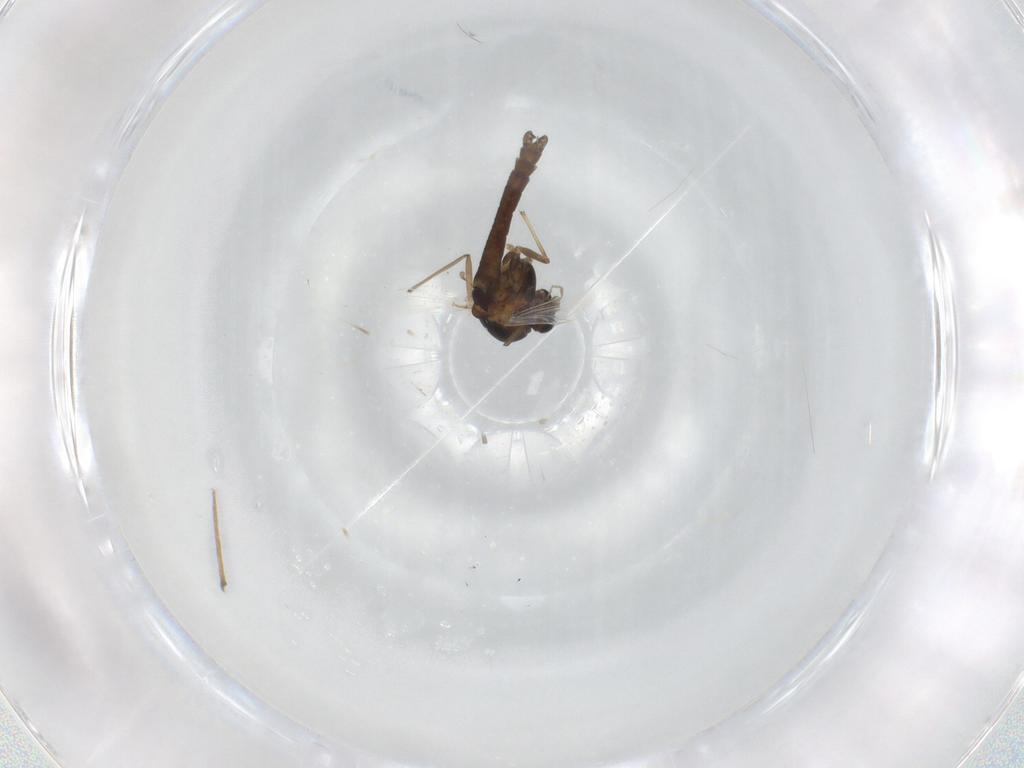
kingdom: Animalia
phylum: Arthropoda
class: Insecta
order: Diptera
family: Chironomidae
